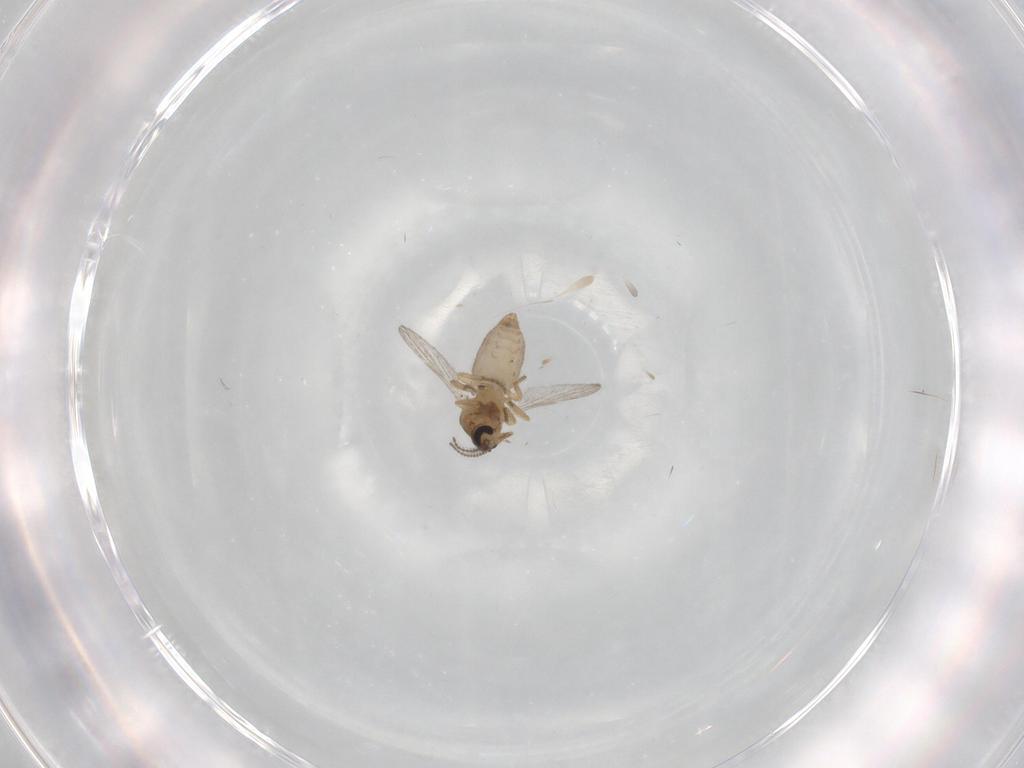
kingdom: Animalia
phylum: Arthropoda
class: Insecta
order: Diptera
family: Ceratopogonidae
